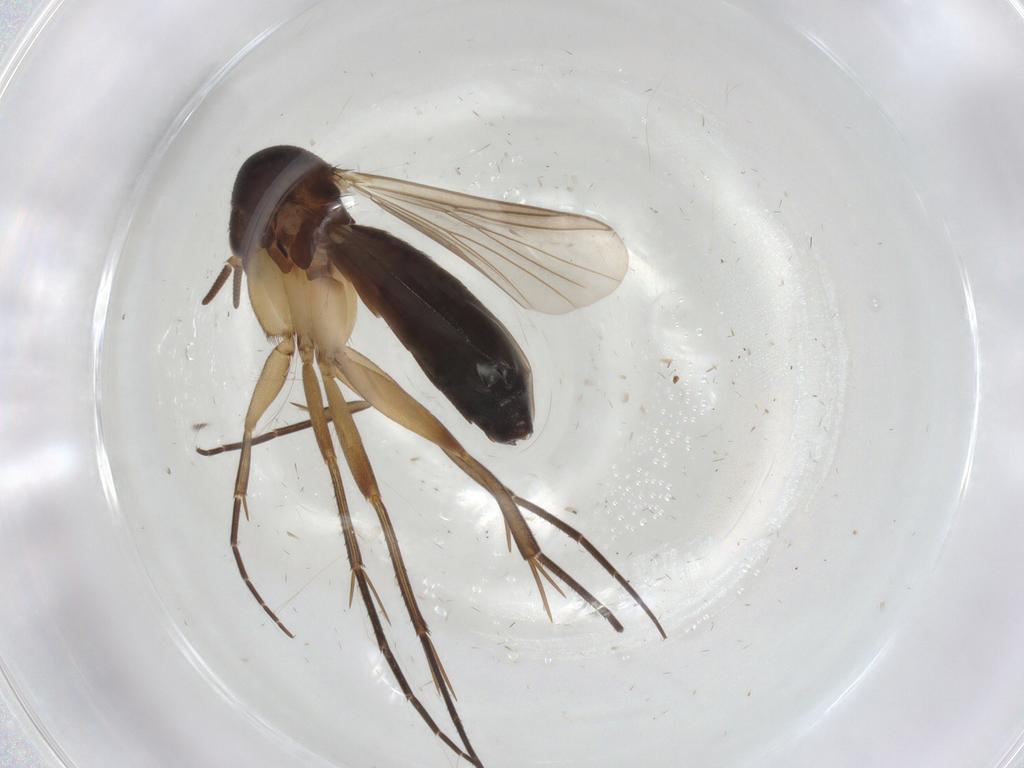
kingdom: Animalia
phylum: Arthropoda
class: Insecta
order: Diptera
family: Mycetophilidae
